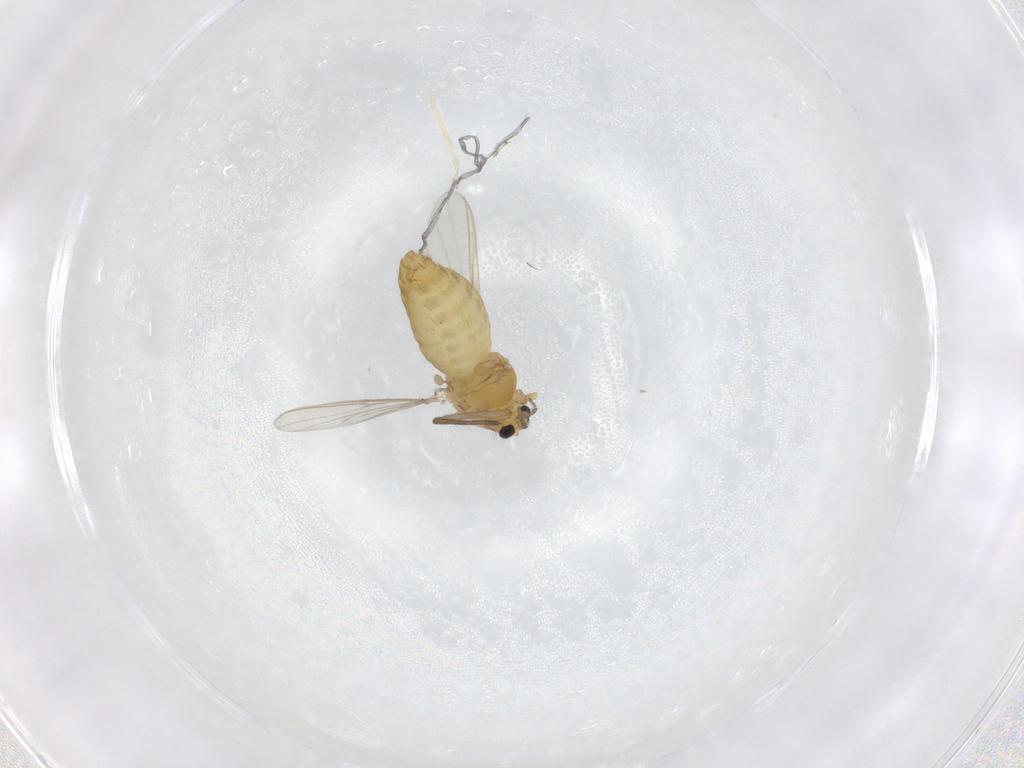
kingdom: Animalia
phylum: Arthropoda
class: Insecta
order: Diptera
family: Chironomidae
